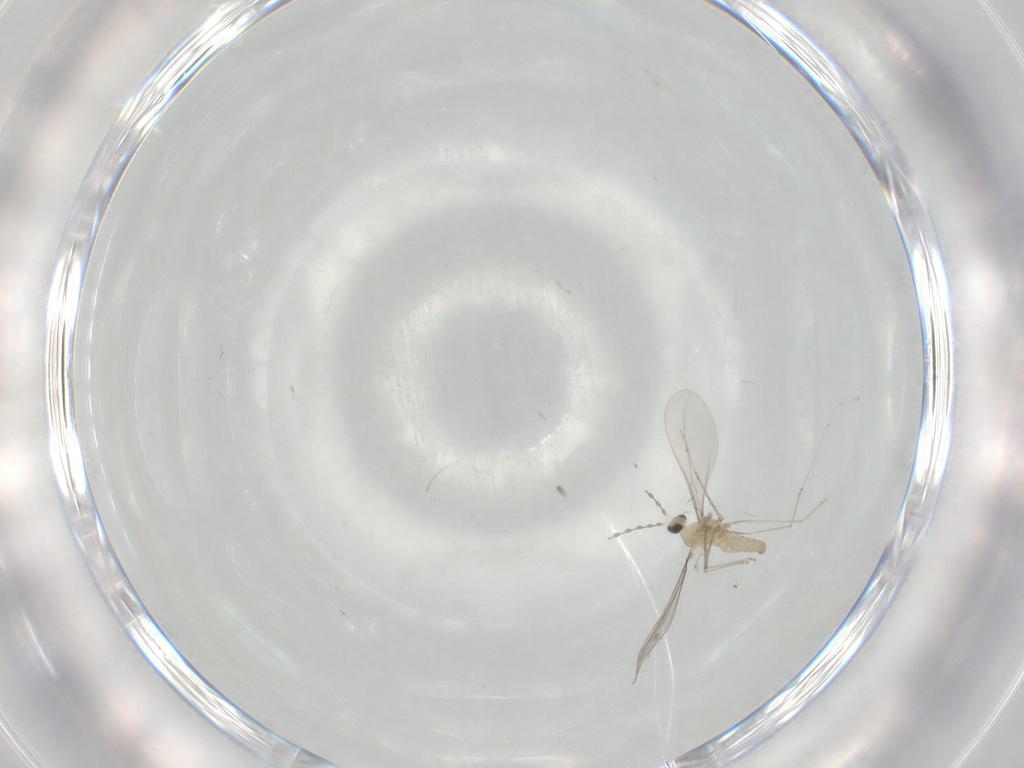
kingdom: Animalia
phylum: Arthropoda
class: Insecta
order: Diptera
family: Cecidomyiidae
